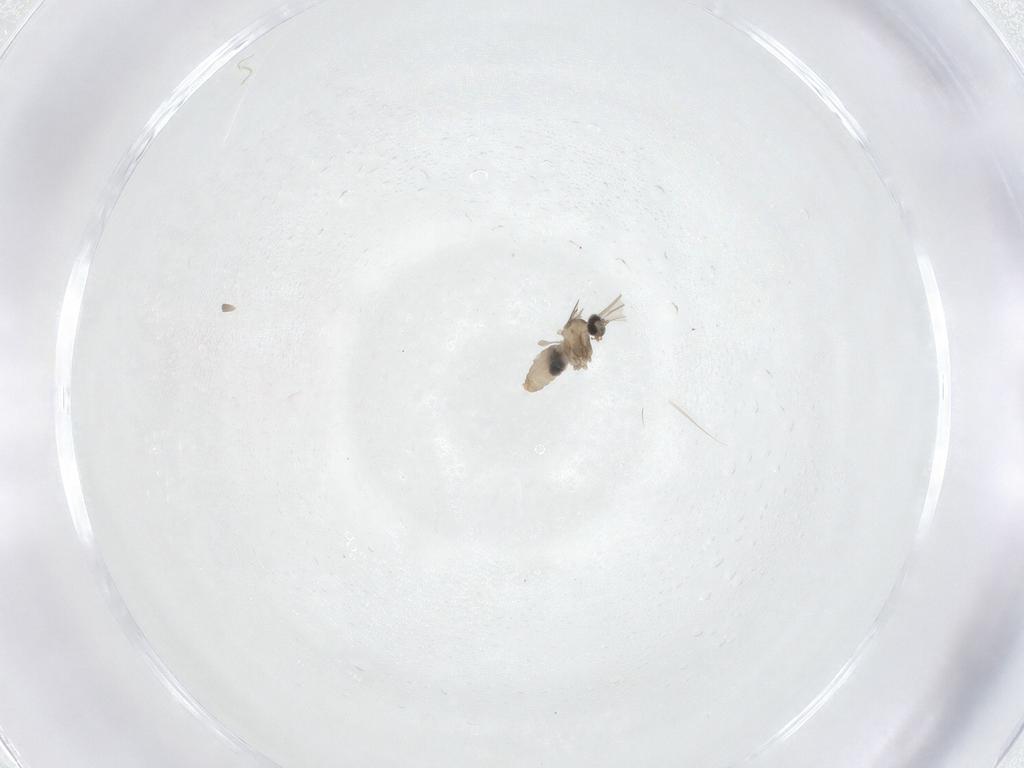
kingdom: Animalia
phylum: Arthropoda
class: Insecta
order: Diptera
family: Cecidomyiidae
